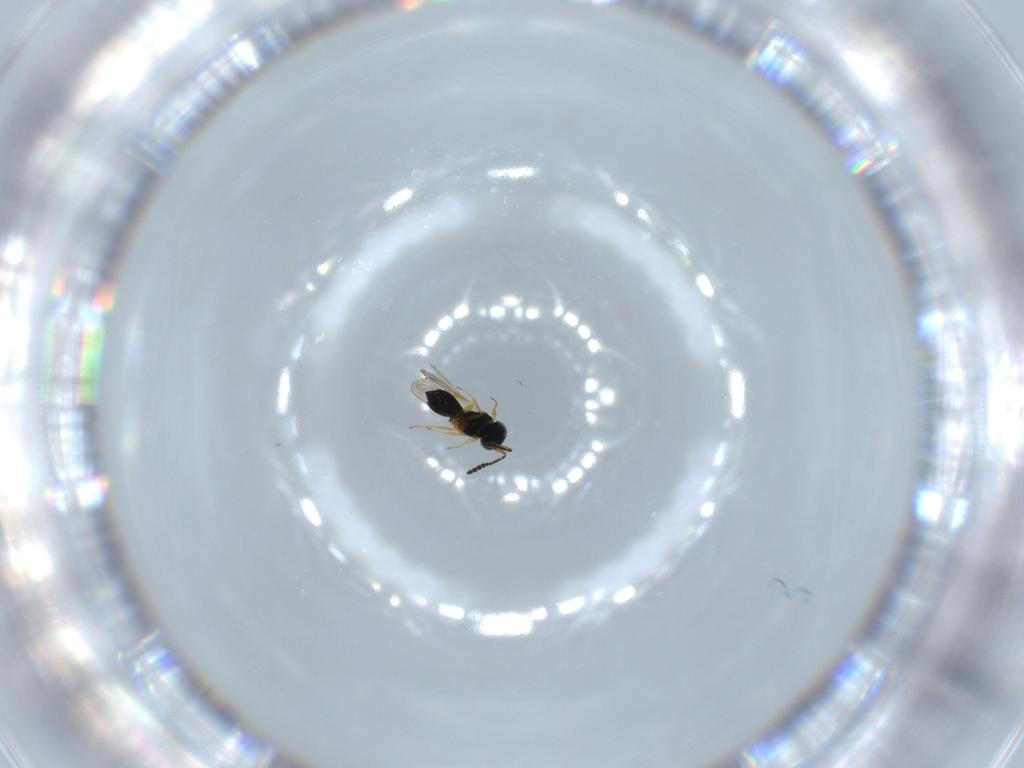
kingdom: Animalia
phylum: Arthropoda
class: Insecta
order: Hymenoptera
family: Scelionidae
